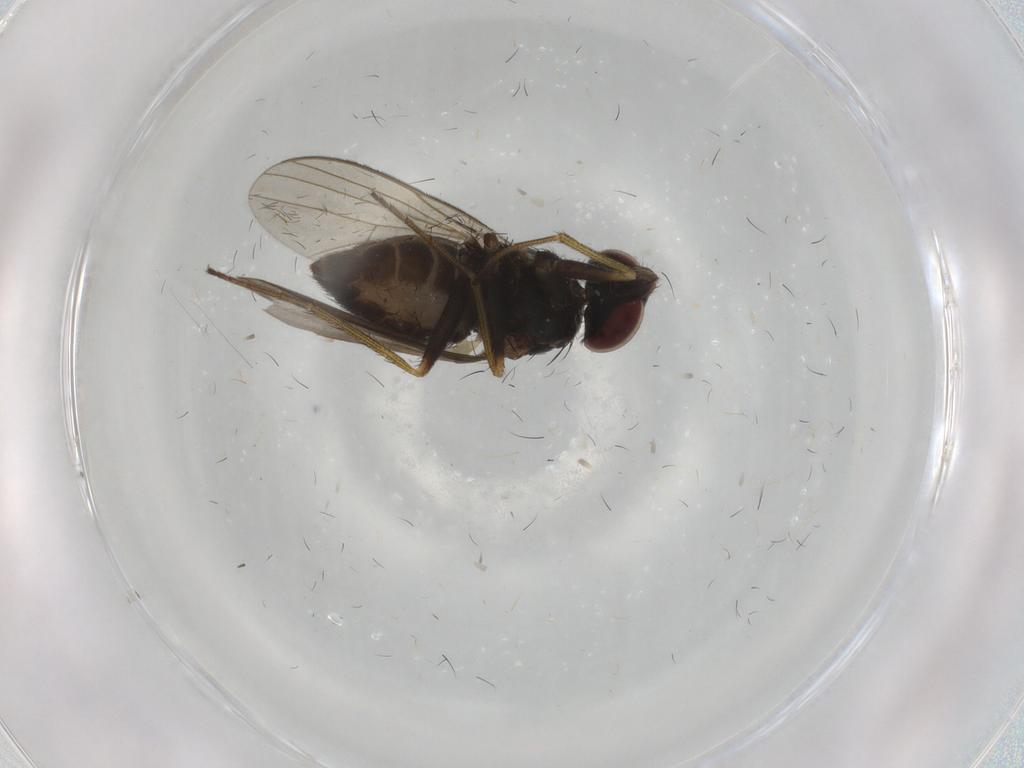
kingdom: Animalia
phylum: Arthropoda
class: Insecta
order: Diptera
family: Dolichopodidae
